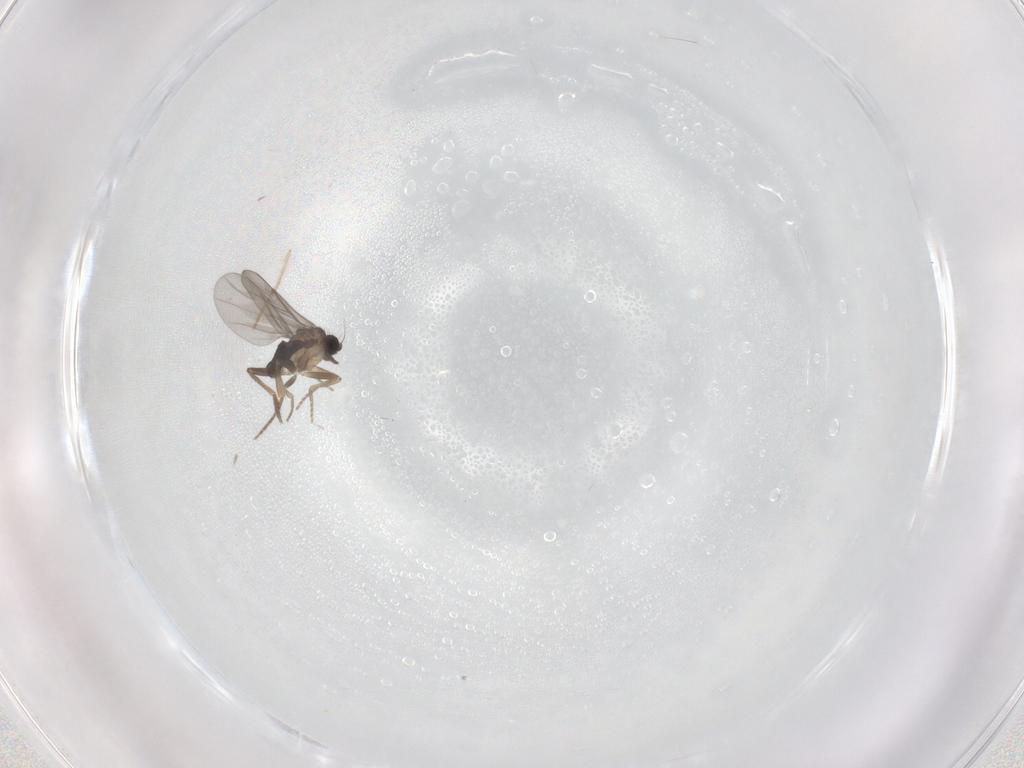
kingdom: Animalia
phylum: Arthropoda
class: Insecta
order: Diptera
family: Chironomidae
